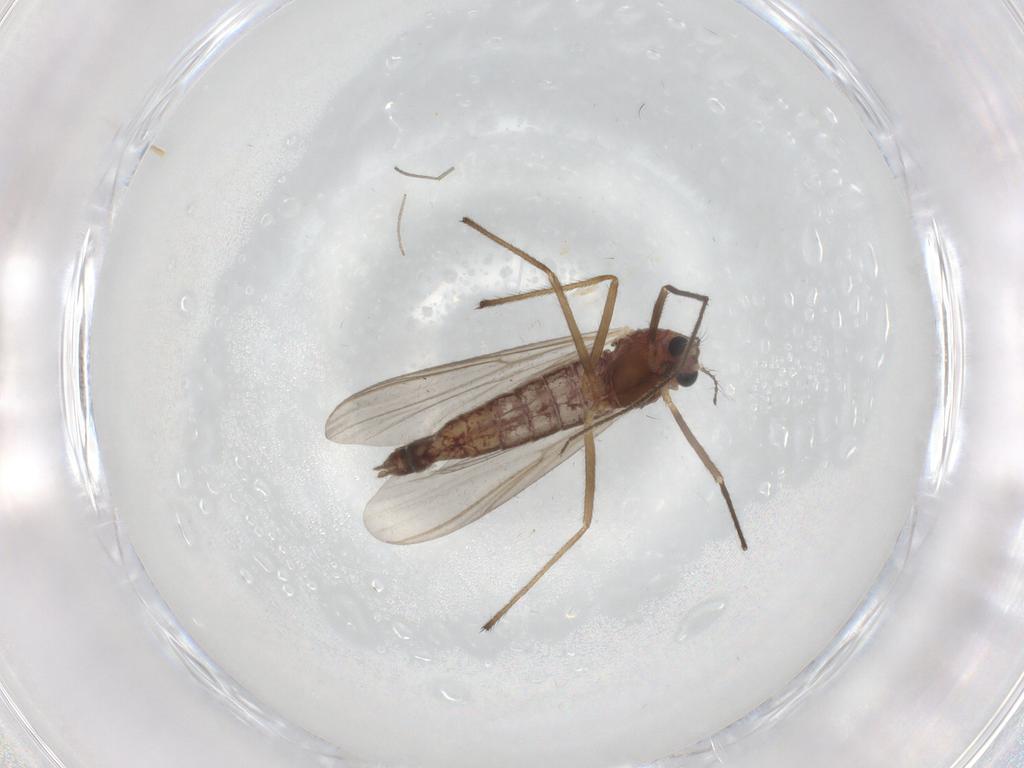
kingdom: Animalia
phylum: Arthropoda
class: Insecta
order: Diptera
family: Chironomidae
